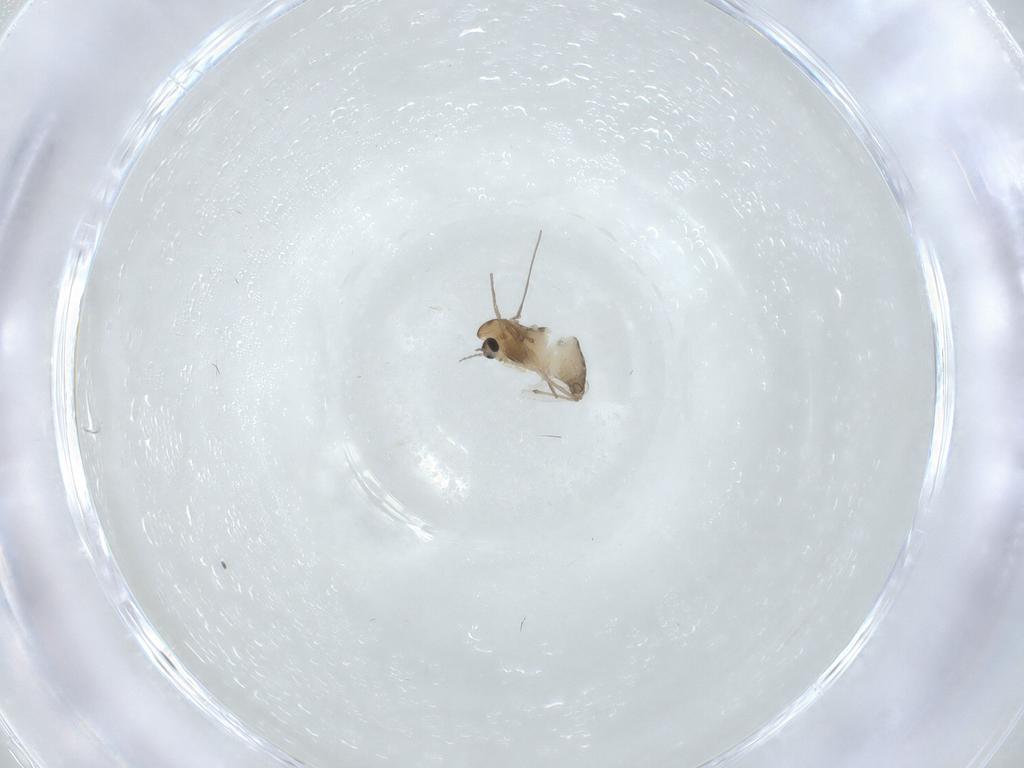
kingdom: Animalia
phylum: Arthropoda
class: Insecta
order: Diptera
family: Chironomidae
